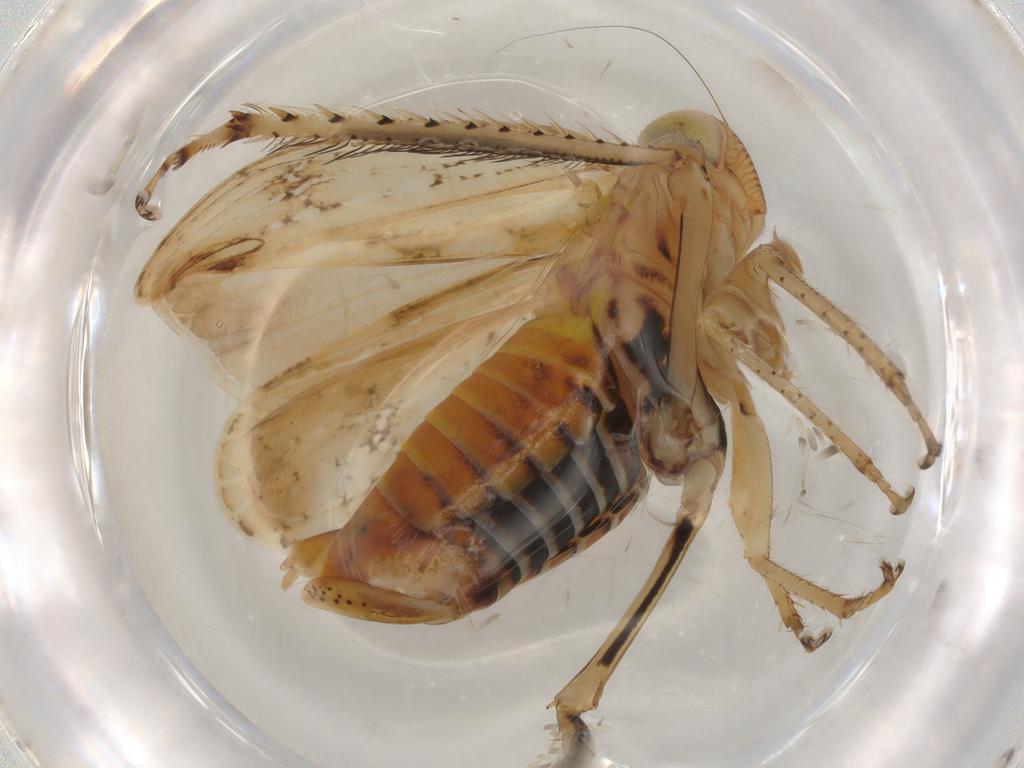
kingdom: Animalia
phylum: Arthropoda
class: Insecta
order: Hemiptera
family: Cicadellidae
